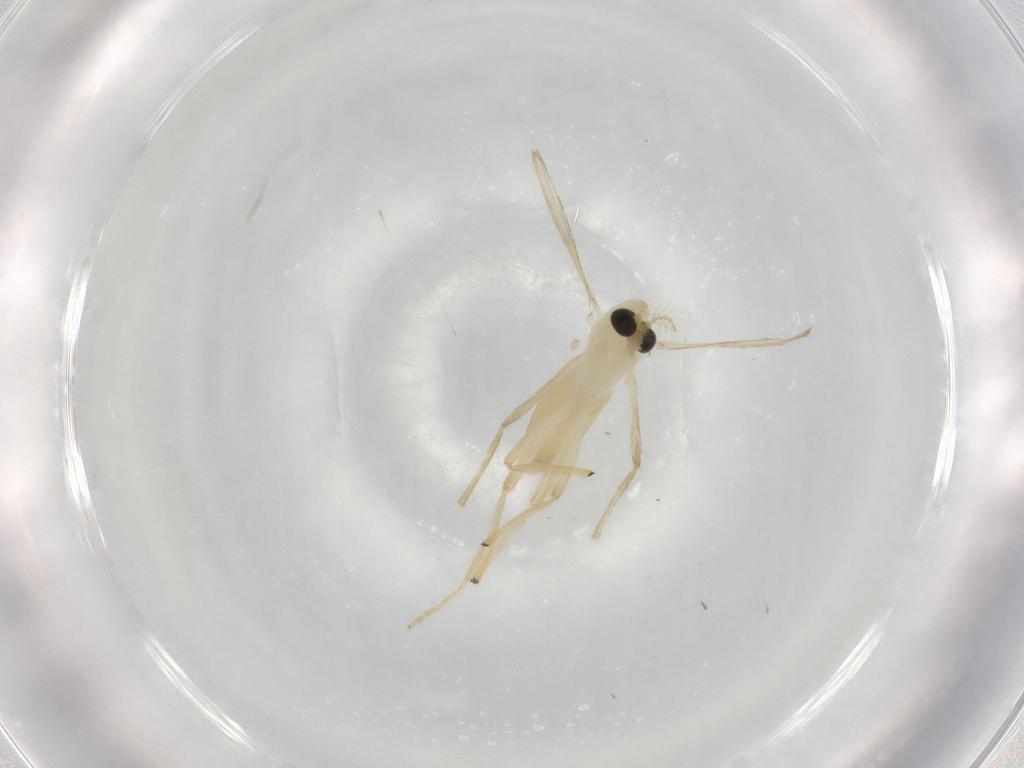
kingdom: Animalia
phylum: Arthropoda
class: Insecta
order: Diptera
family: Chironomidae
